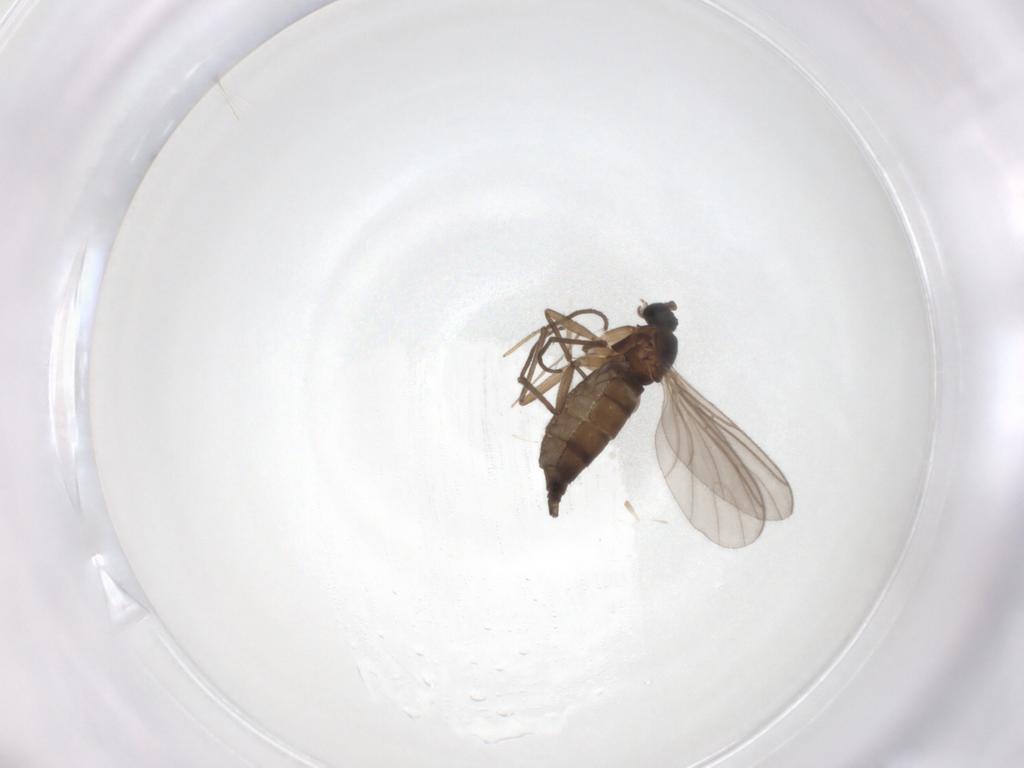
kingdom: Animalia
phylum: Arthropoda
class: Insecta
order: Diptera
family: Sciaridae
